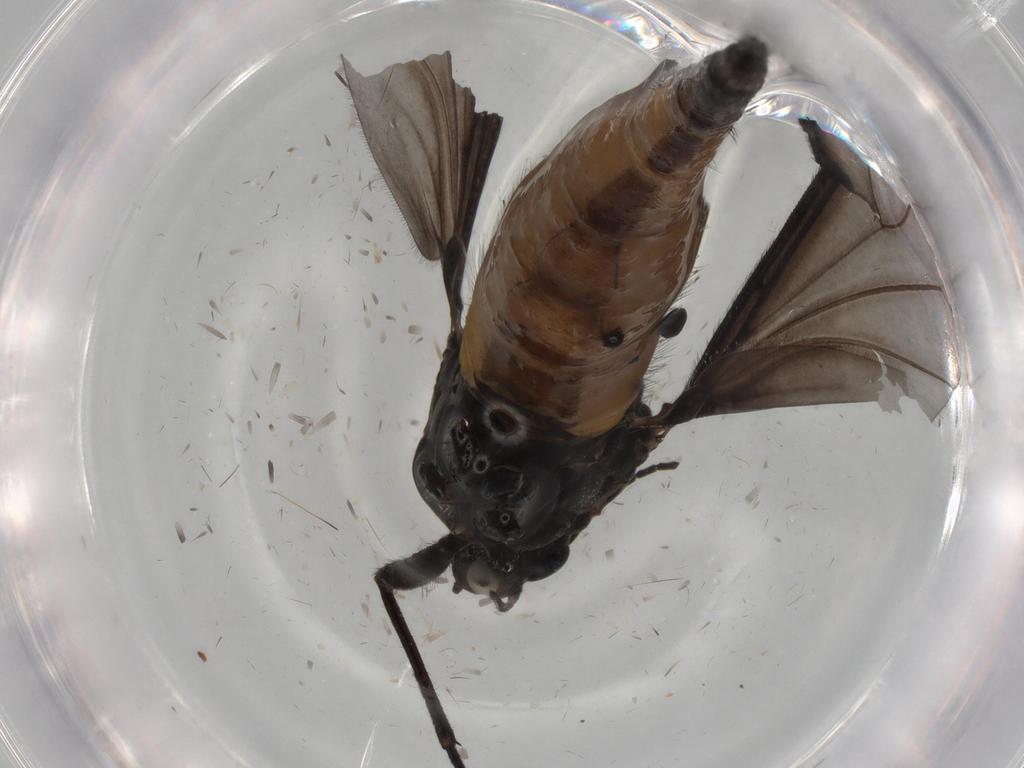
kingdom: Animalia
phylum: Arthropoda
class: Insecta
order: Diptera
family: Sciaridae
